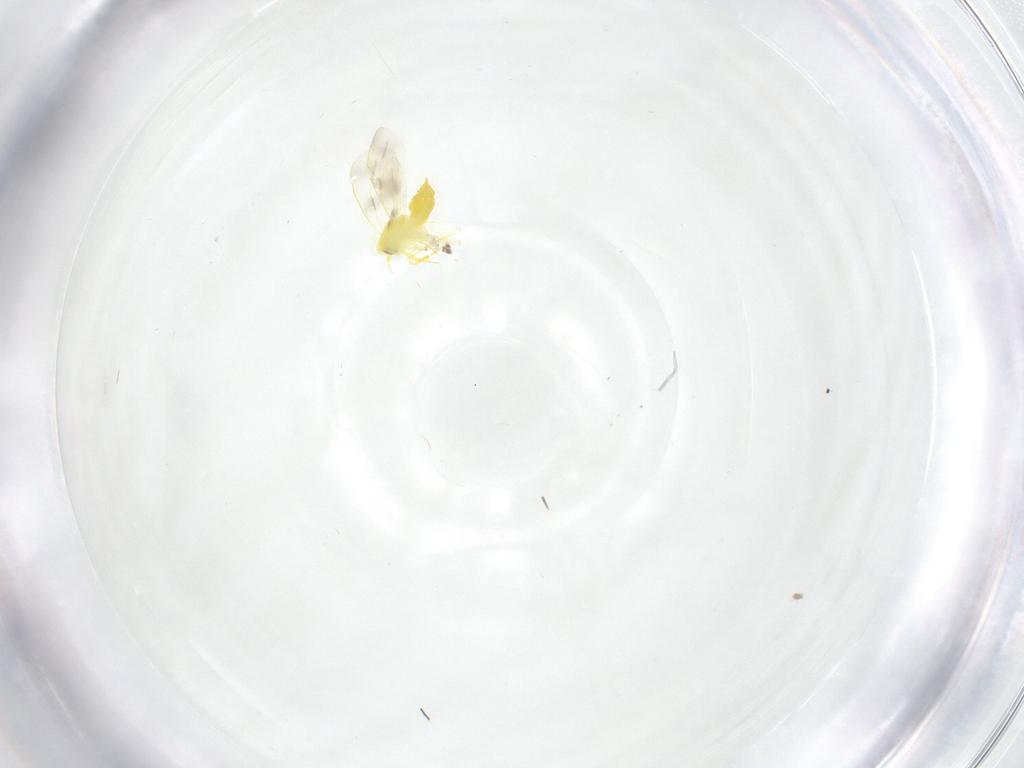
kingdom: Animalia
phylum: Arthropoda
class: Insecta
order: Hemiptera
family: Aleyrodidae
